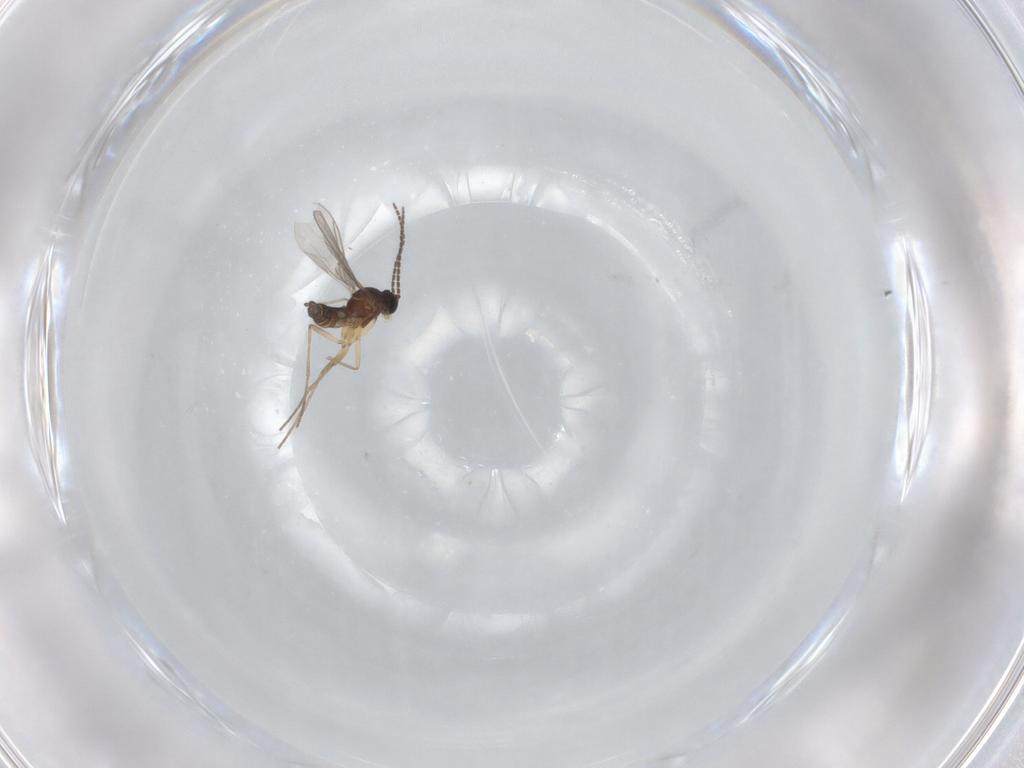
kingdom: Animalia
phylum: Arthropoda
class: Insecta
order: Diptera
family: Sciaridae
